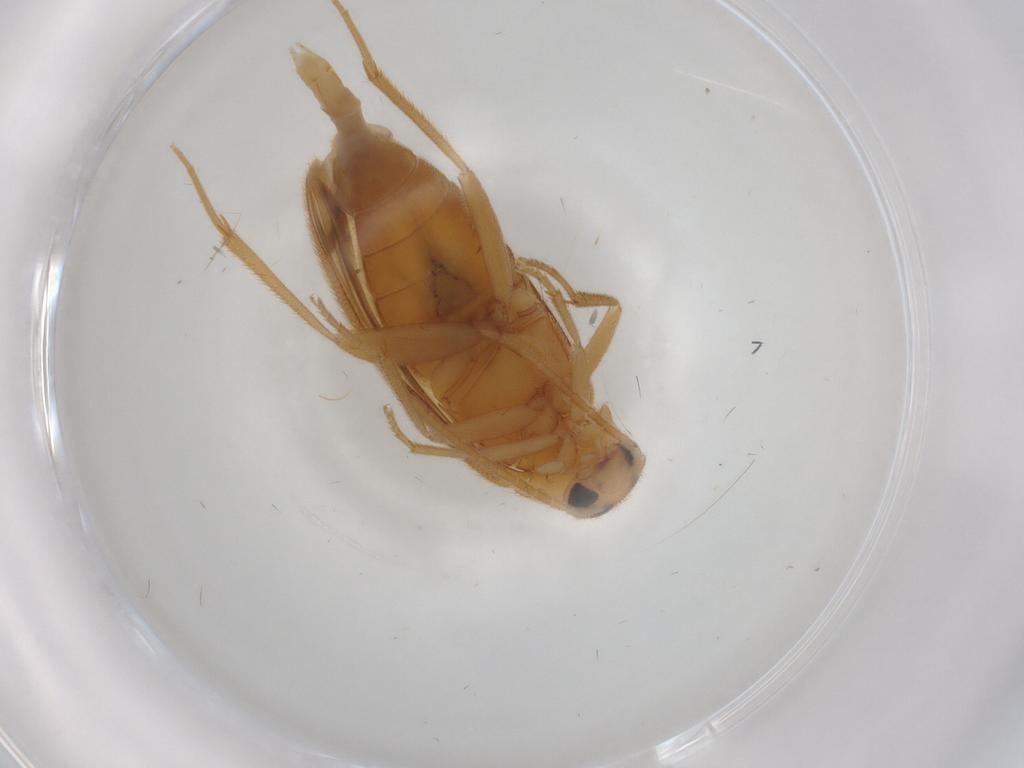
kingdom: Animalia
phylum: Arthropoda
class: Insecta
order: Coleoptera
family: Scraptiidae
